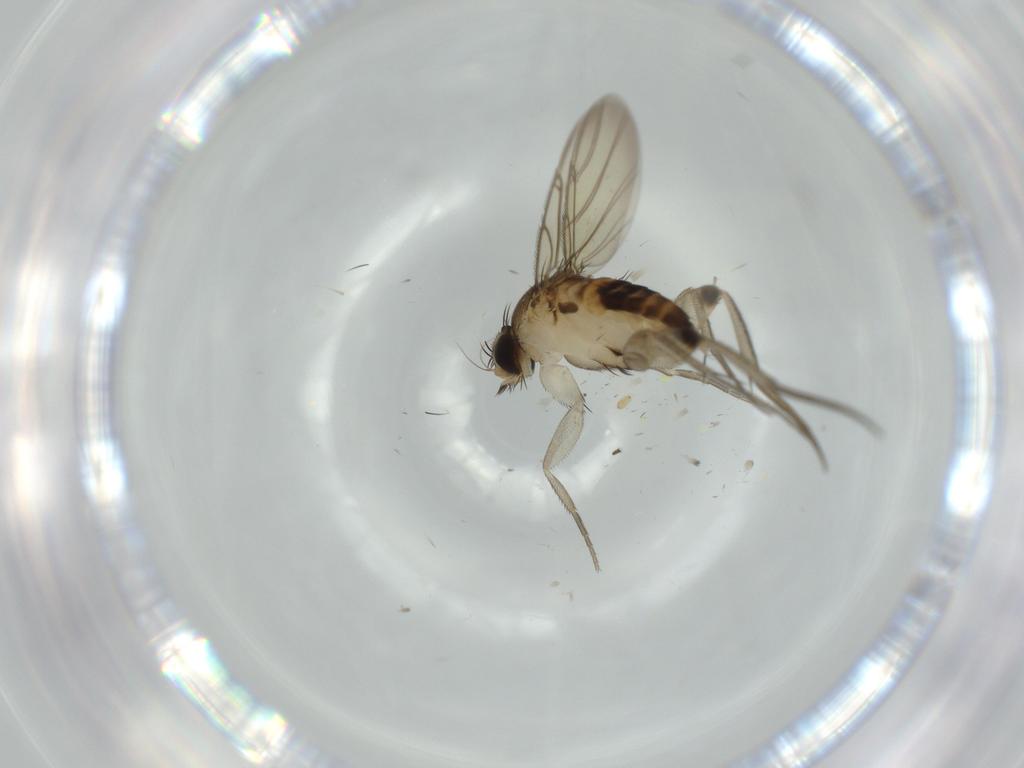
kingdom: Animalia
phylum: Arthropoda
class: Insecta
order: Diptera
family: Phoridae
